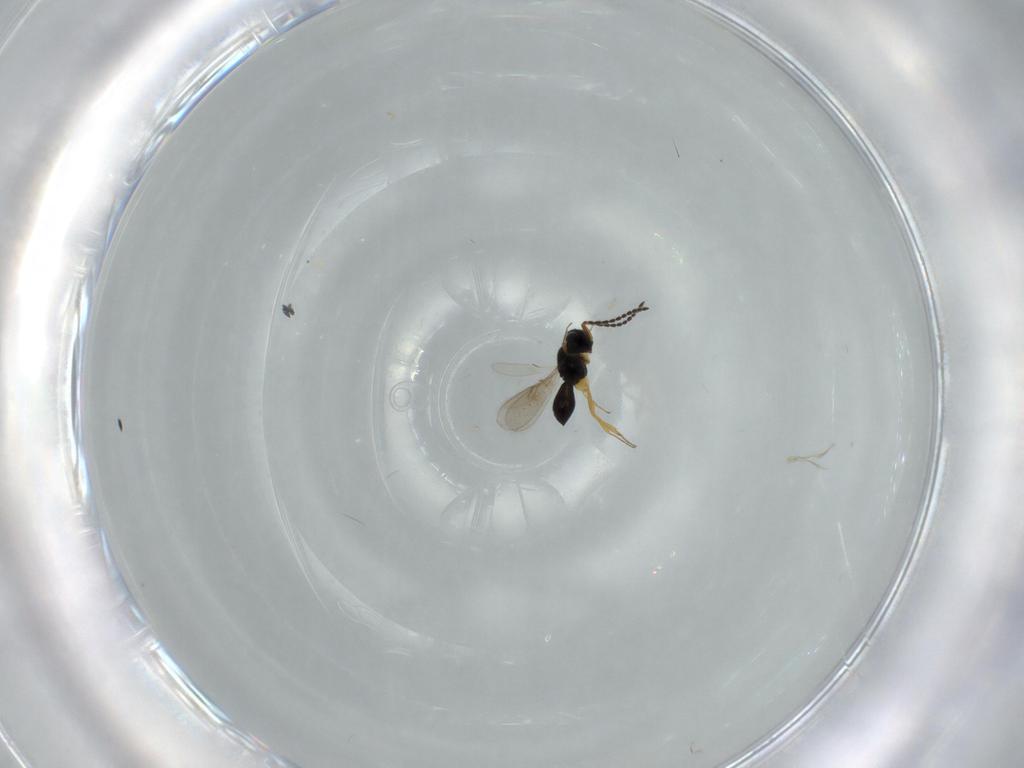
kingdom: Animalia
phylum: Arthropoda
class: Insecta
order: Hymenoptera
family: Scelionidae
